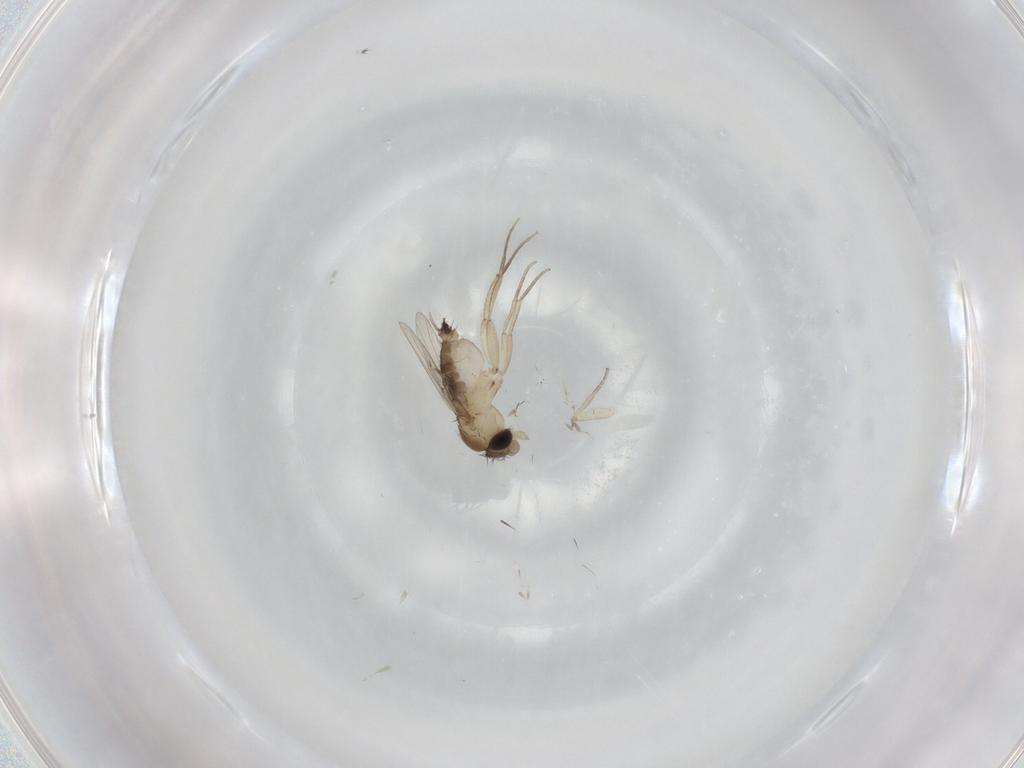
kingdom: Animalia
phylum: Arthropoda
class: Insecta
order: Diptera
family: Phoridae
